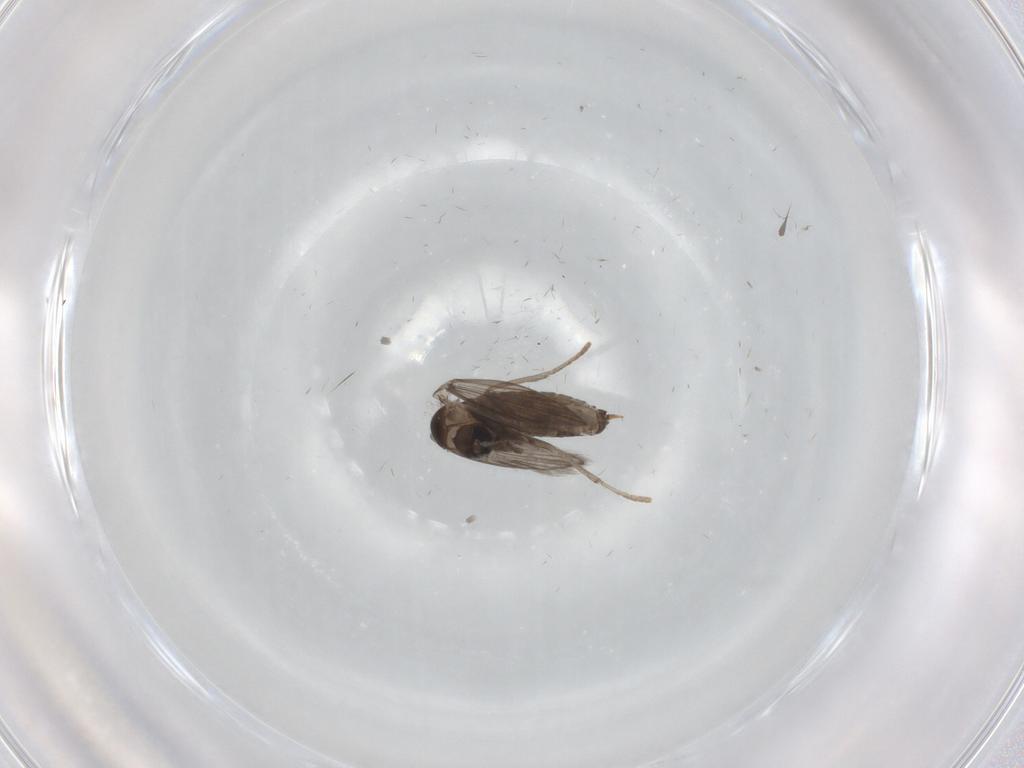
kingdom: Animalia
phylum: Arthropoda
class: Insecta
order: Diptera
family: Psychodidae
